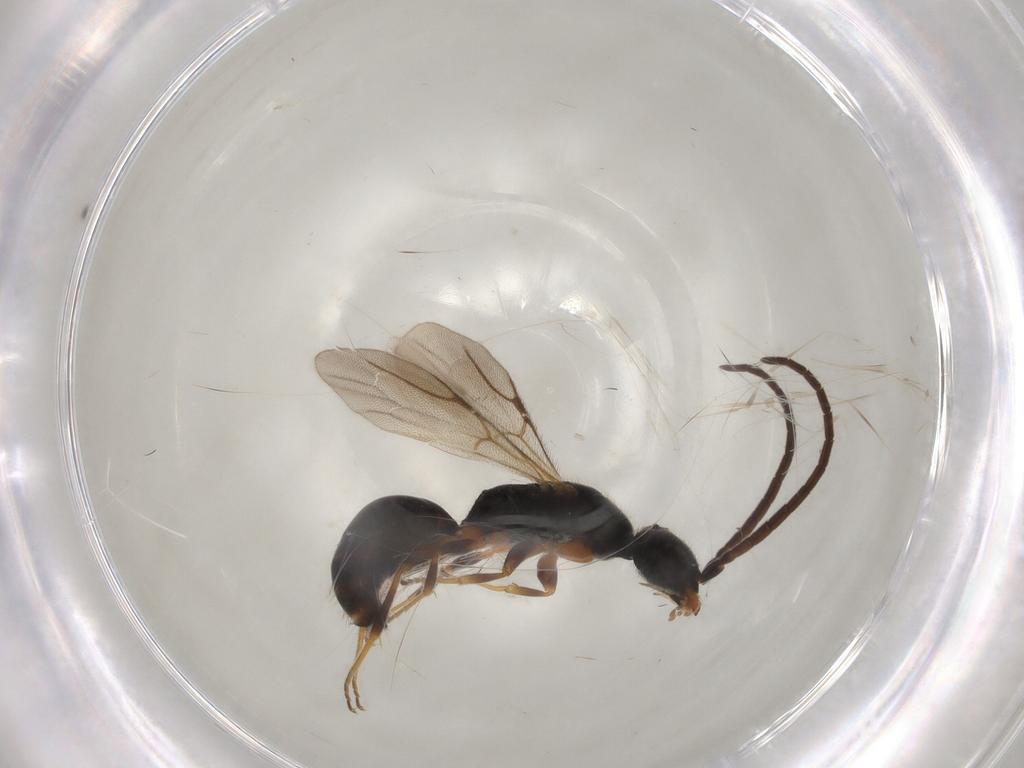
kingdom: Animalia
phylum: Arthropoda
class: Insecta
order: Hymenoptera
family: Bethylidae
